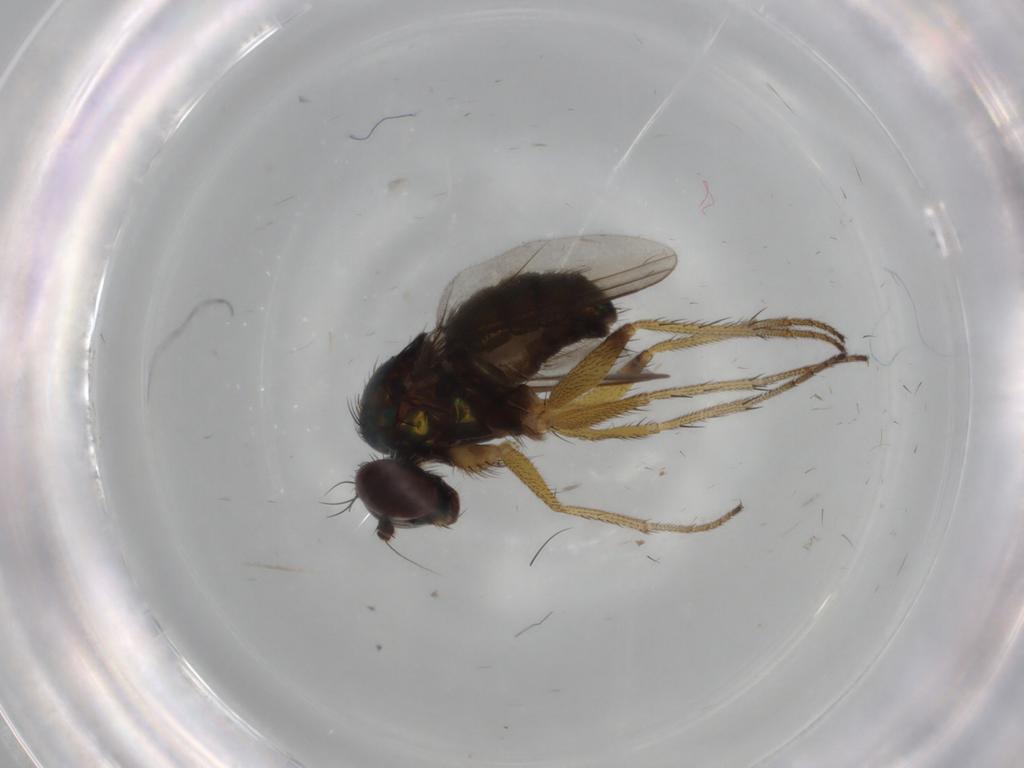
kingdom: Animalia
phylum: Arthropoda
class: Insecta
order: Diptera
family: Dolichopodidae
